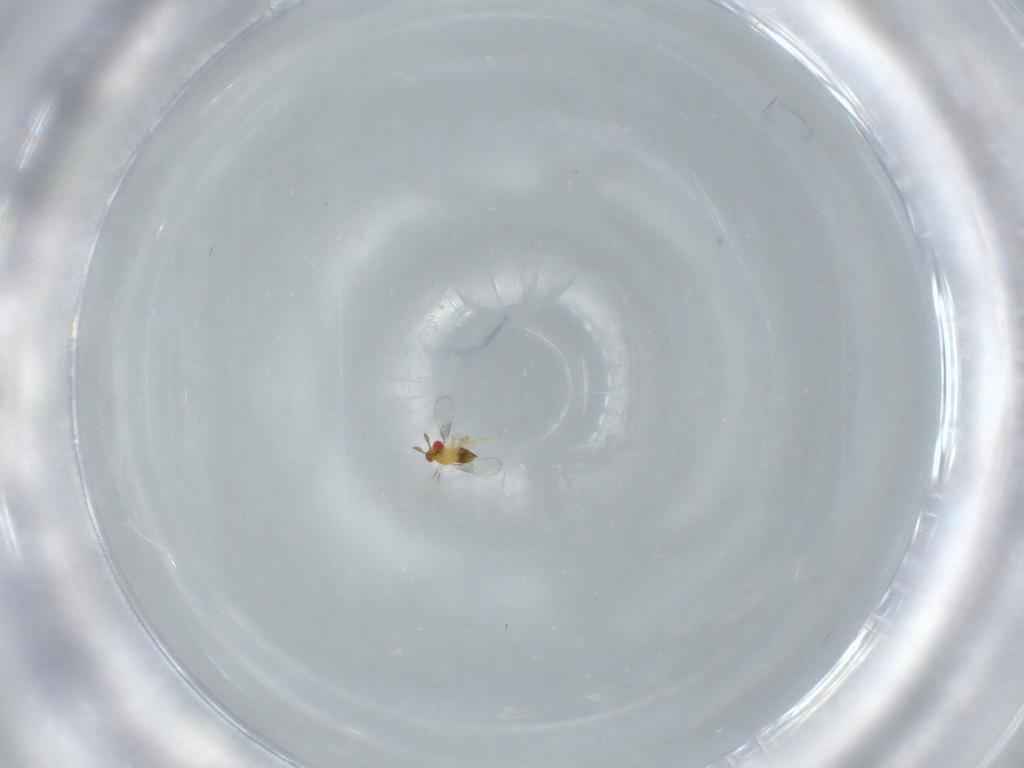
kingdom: Animalia
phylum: Arthropoda
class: Insecta
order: Hymenoptera
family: Trichogrammatidae
